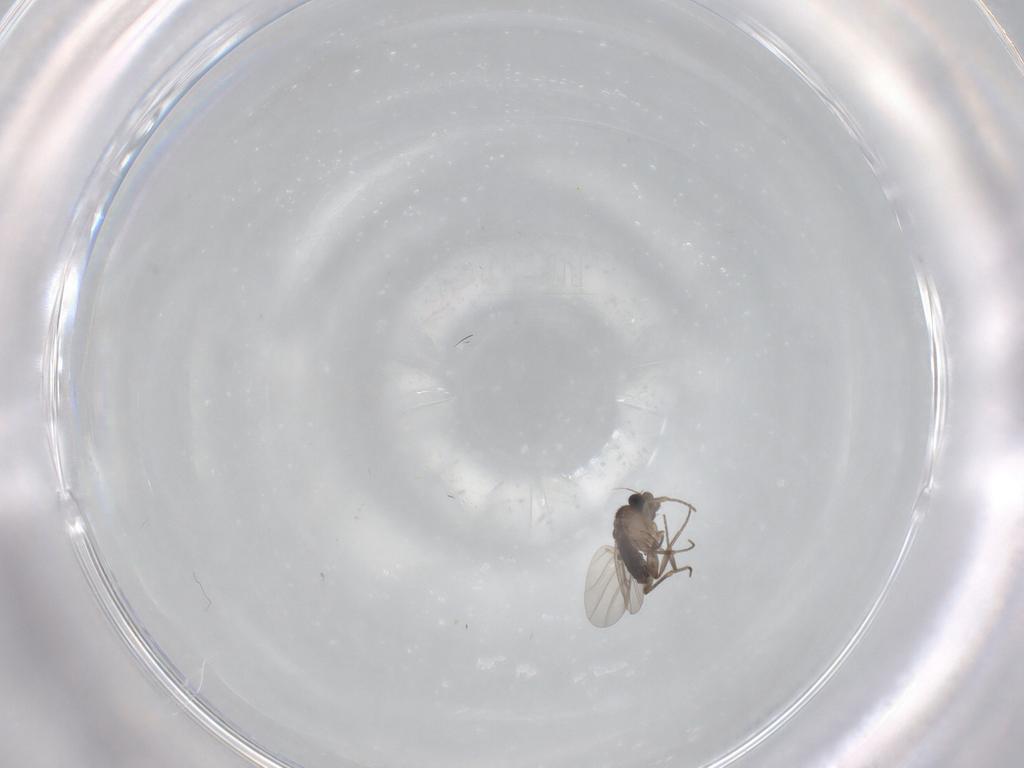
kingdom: Animalia
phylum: Arthropoda
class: Insecta
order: Diptera
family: Phoridae
